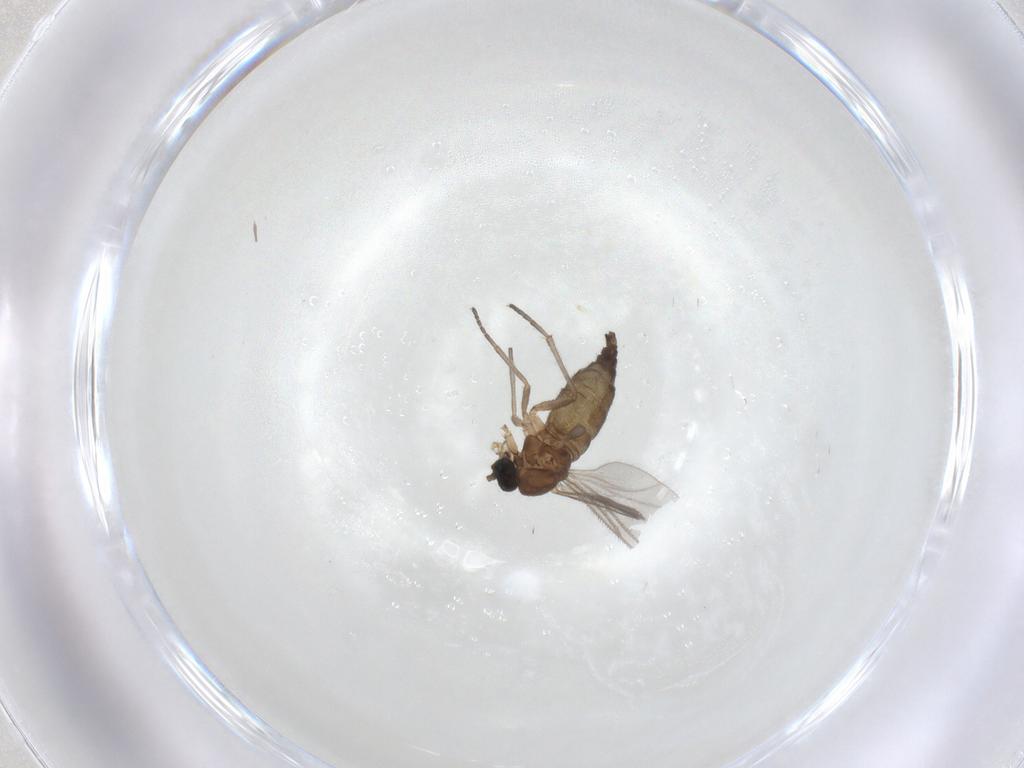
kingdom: Animalia
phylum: Arthropoda
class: Insecta
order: Diptera
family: Sciaridae
